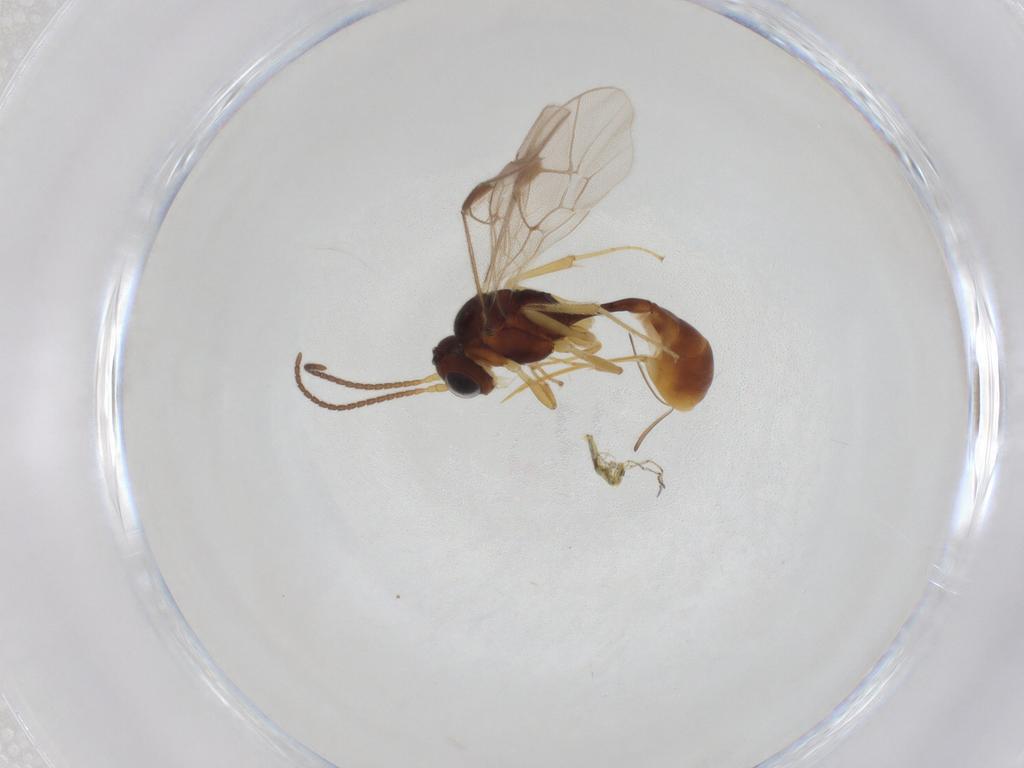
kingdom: Animalia
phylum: Arthropoda
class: Insecta
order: Hymenoptera
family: Ichneumonidae
